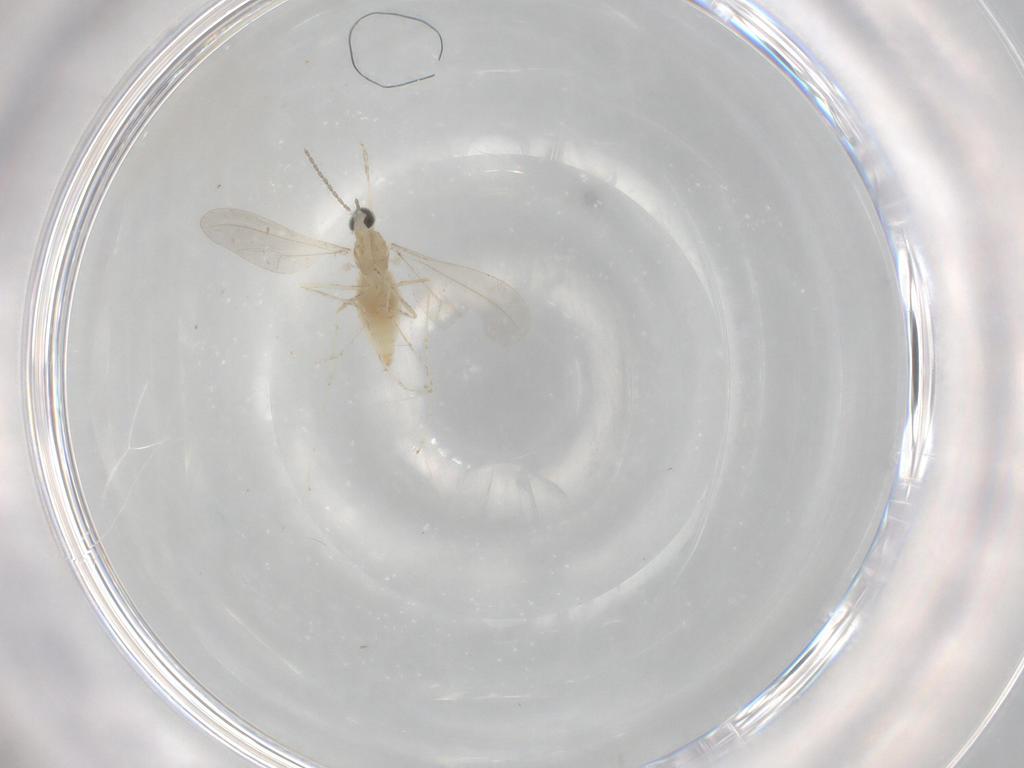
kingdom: Animalia
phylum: Arthropoda
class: Insecta
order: Diptera
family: Cecidomyiidae
